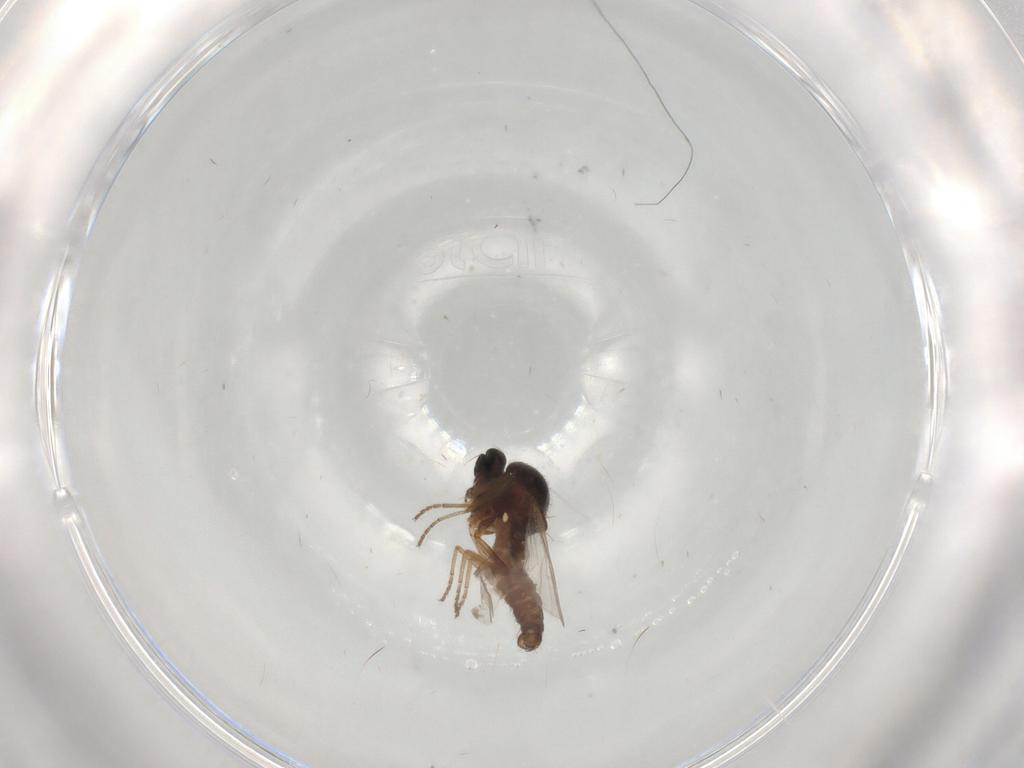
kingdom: Animalia
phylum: Arthropoda
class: Insecta
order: Diptera
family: Ceratopogonidae
